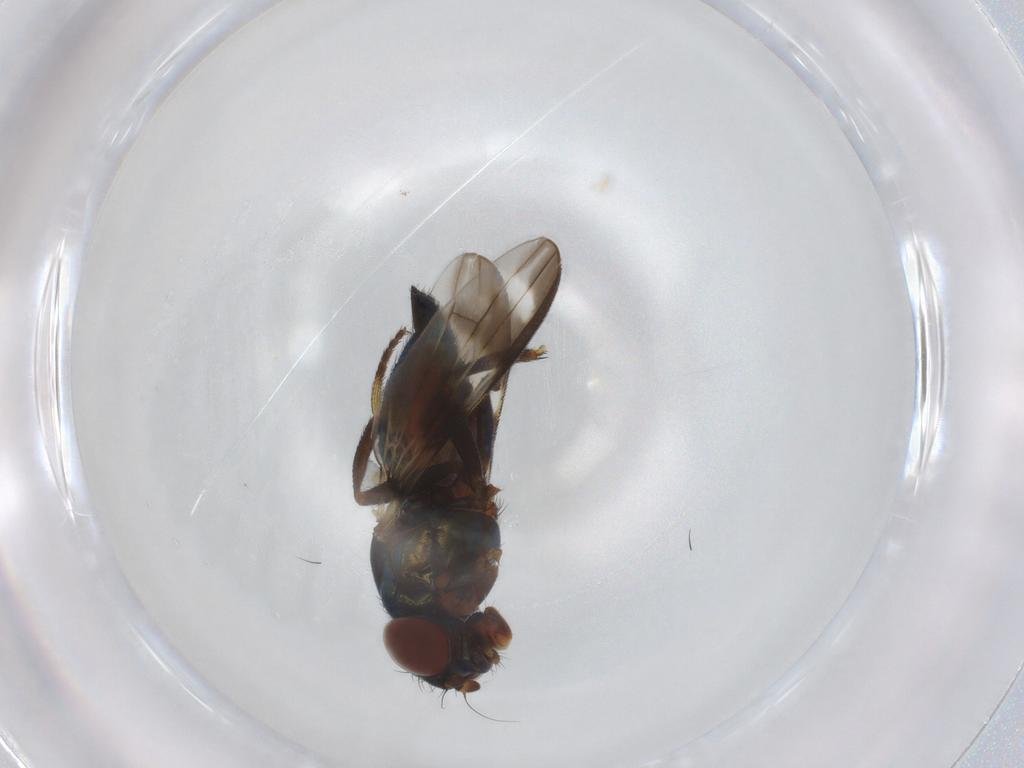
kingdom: Animalia
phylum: Arthropoda
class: Insecta
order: Diptera
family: Ulidiidae
